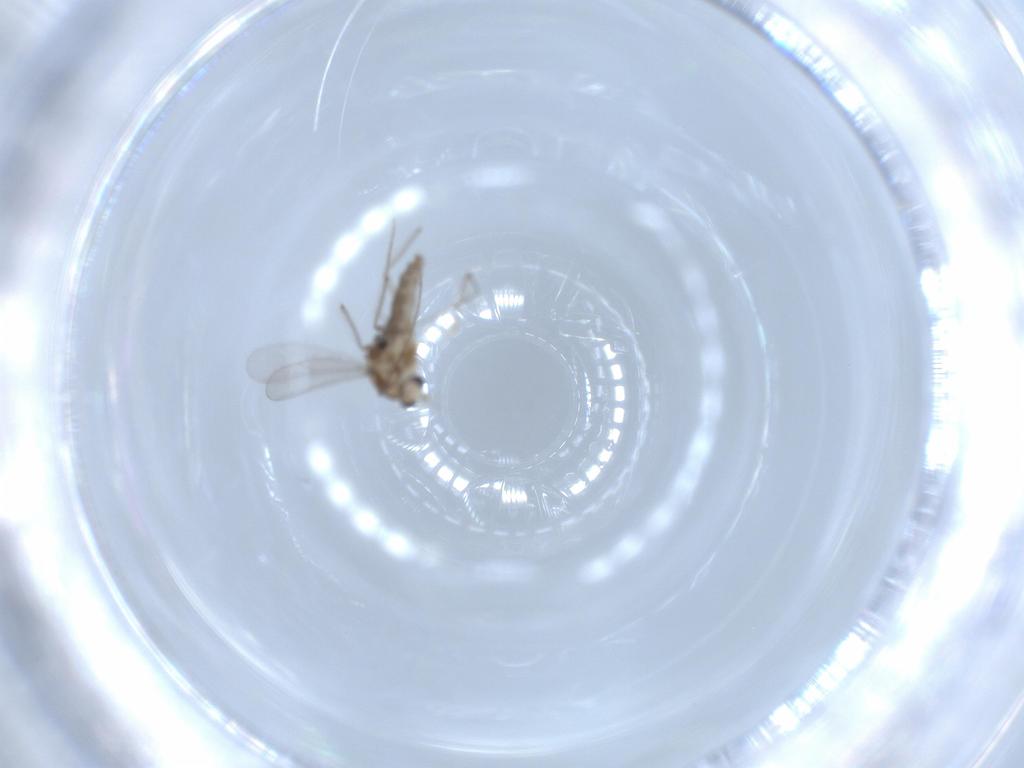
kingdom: Animalia
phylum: Arthropoda
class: Insecta
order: Diptera
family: Chironomidae
